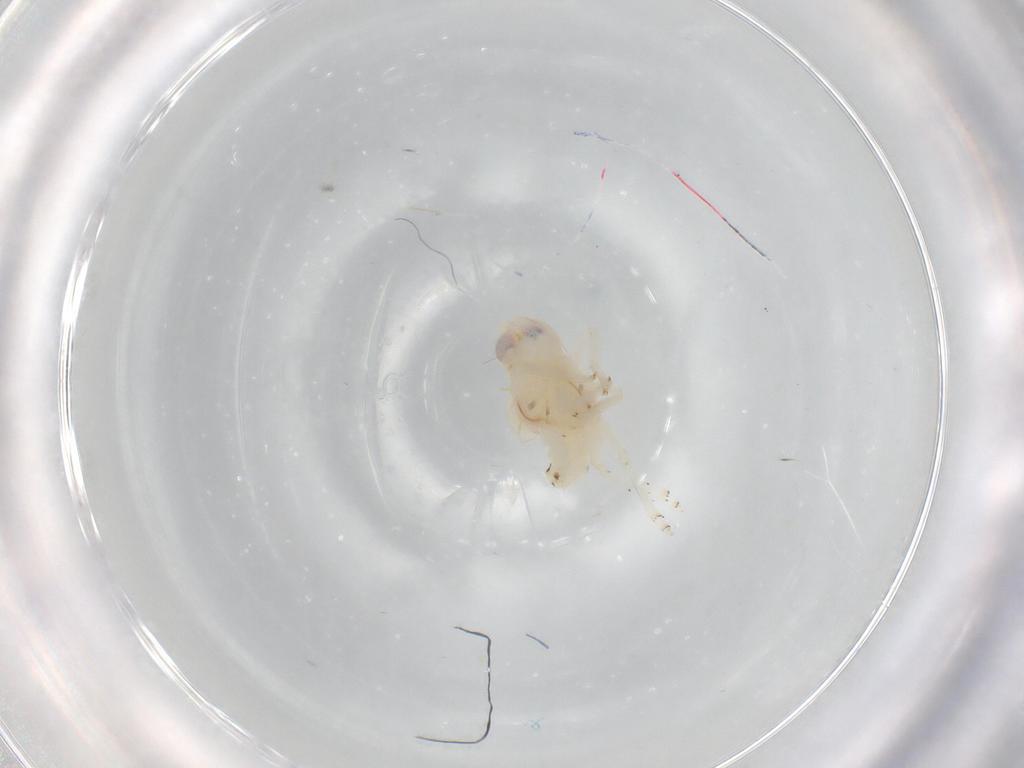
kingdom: Animalia
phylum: Arthropoda
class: Insecta
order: Hemiptera
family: Nogodinidae
